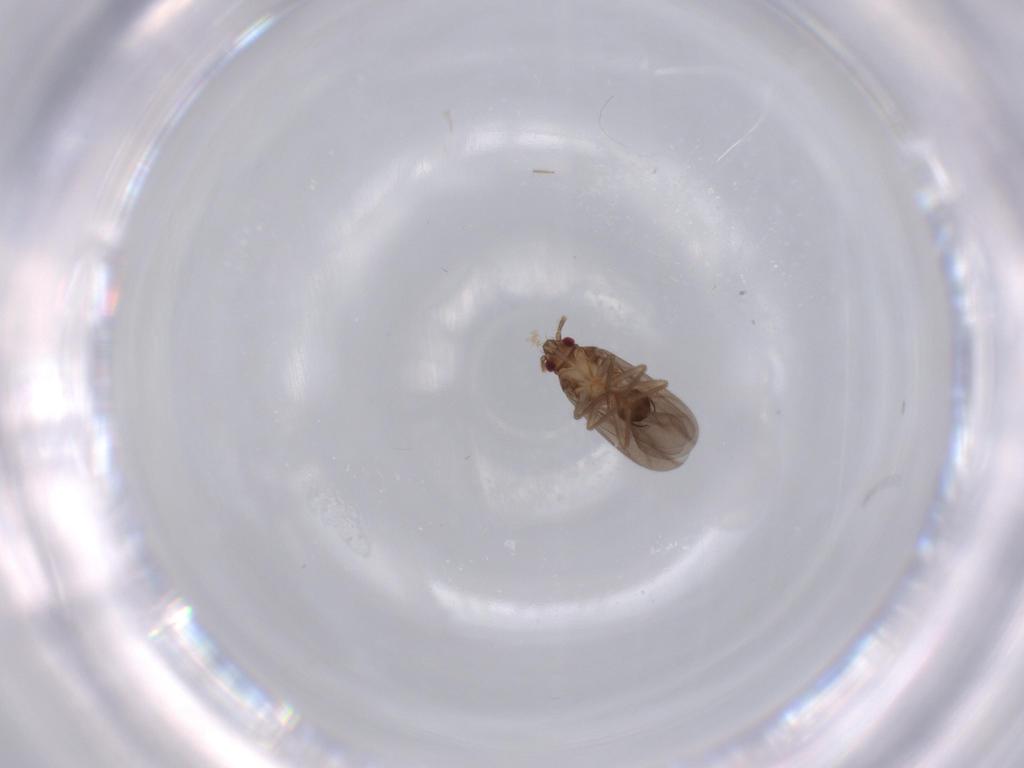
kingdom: Animalia
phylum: Arthropoda
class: Insecta
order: Hemiptera
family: Ceratocombidae
